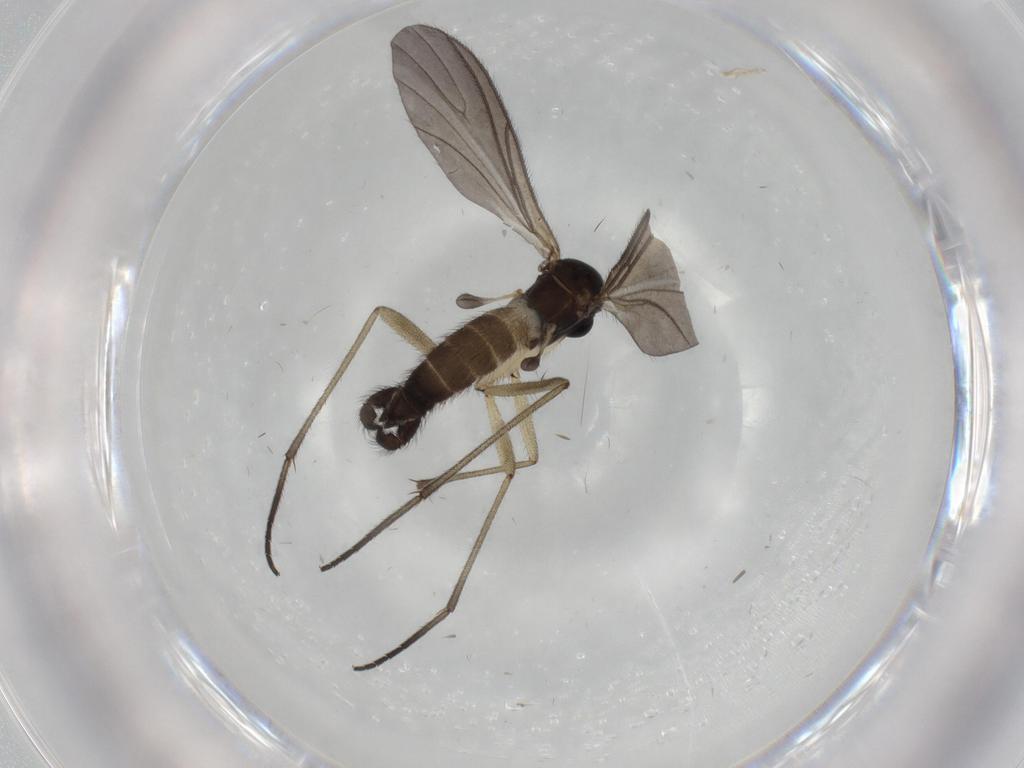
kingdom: Animalia
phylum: Arthropoda
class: Insecta
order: Diptera
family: Sciaridae
